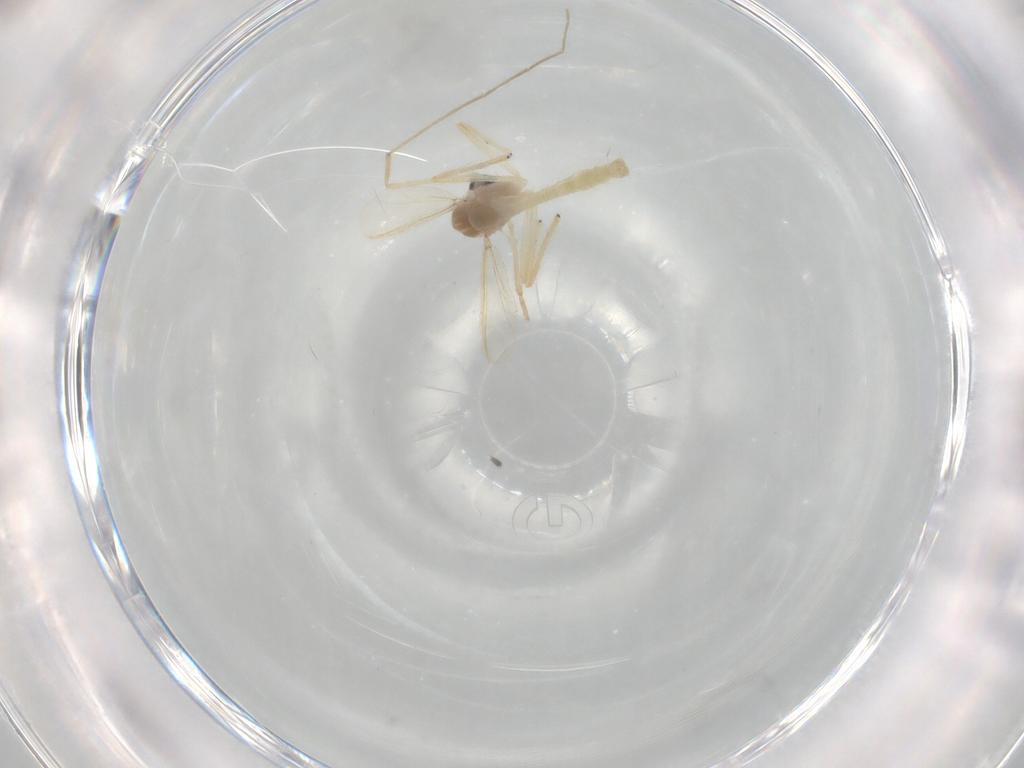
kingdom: Animalia
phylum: Arthropoda
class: Insecta
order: Diptera
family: Chironomidae
